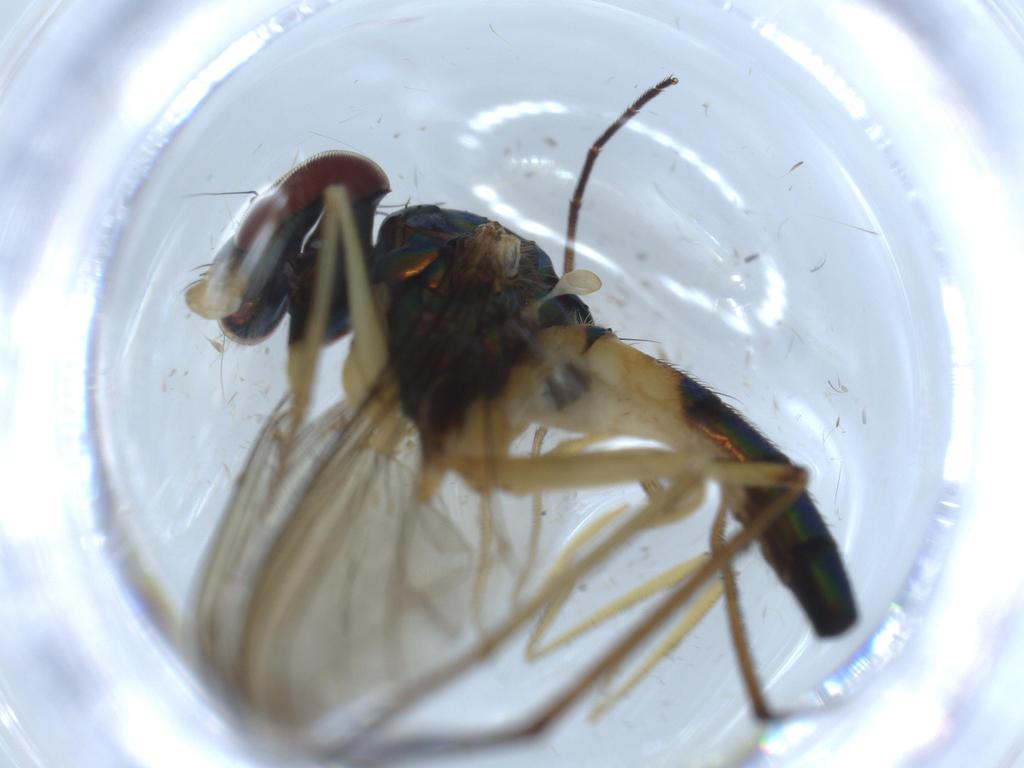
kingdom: Animalia
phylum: Arthropoda
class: Insecta
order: Diptera
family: Dolichopodidae
